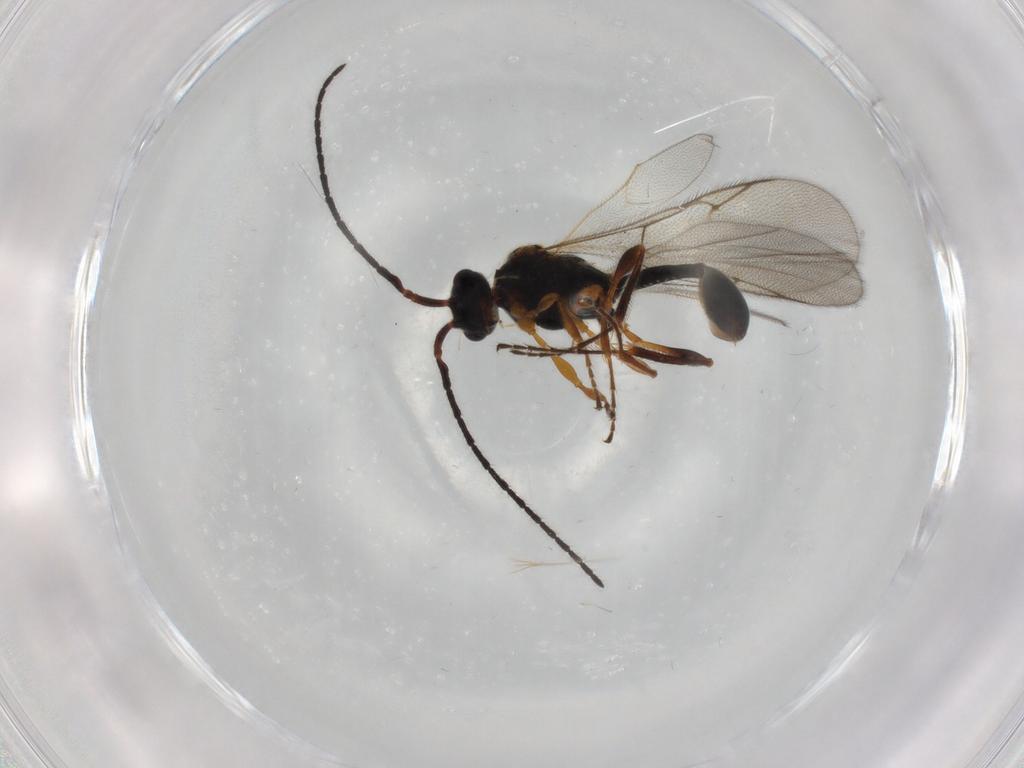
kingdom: Animalia
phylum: Arthropoda
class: Insecta
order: Hymenoptera
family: Diapriidae
